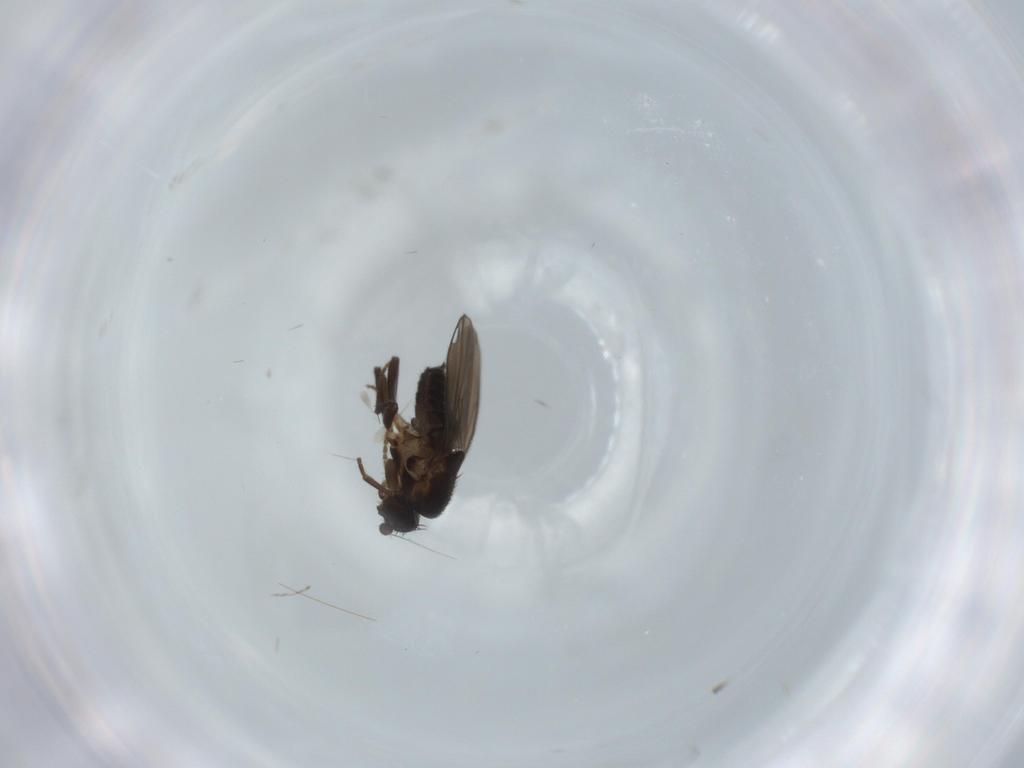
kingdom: Animalia
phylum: Arthropoda
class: Insecta
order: Diptera
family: Sphaeroceridae
